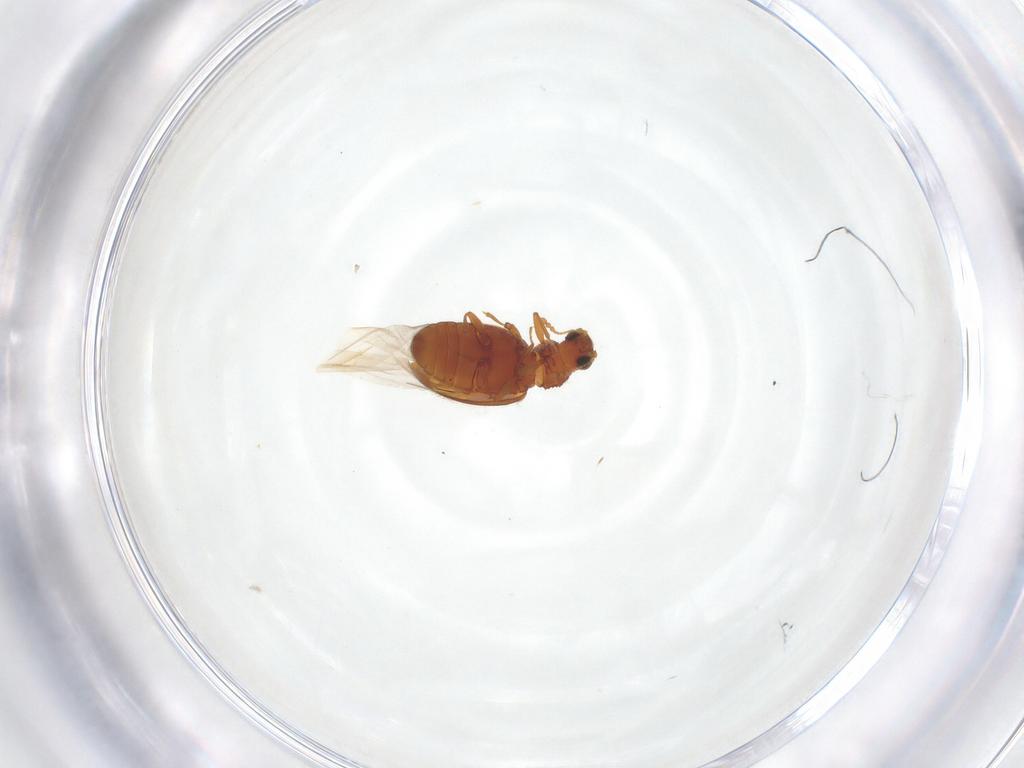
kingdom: Animalia
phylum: Arthropoda
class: Insecta
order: Coleoptera
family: Latridiidae
